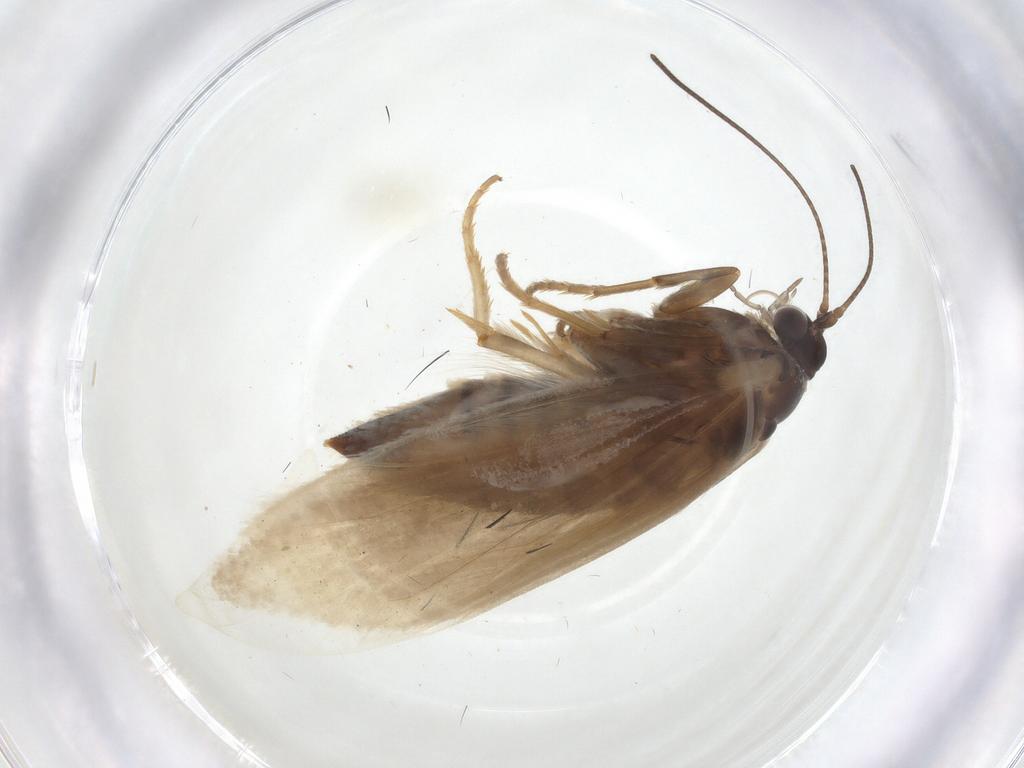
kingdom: Animalia
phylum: Arthropoda
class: Insecta
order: Lepidoptera
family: Tridentaformidae
